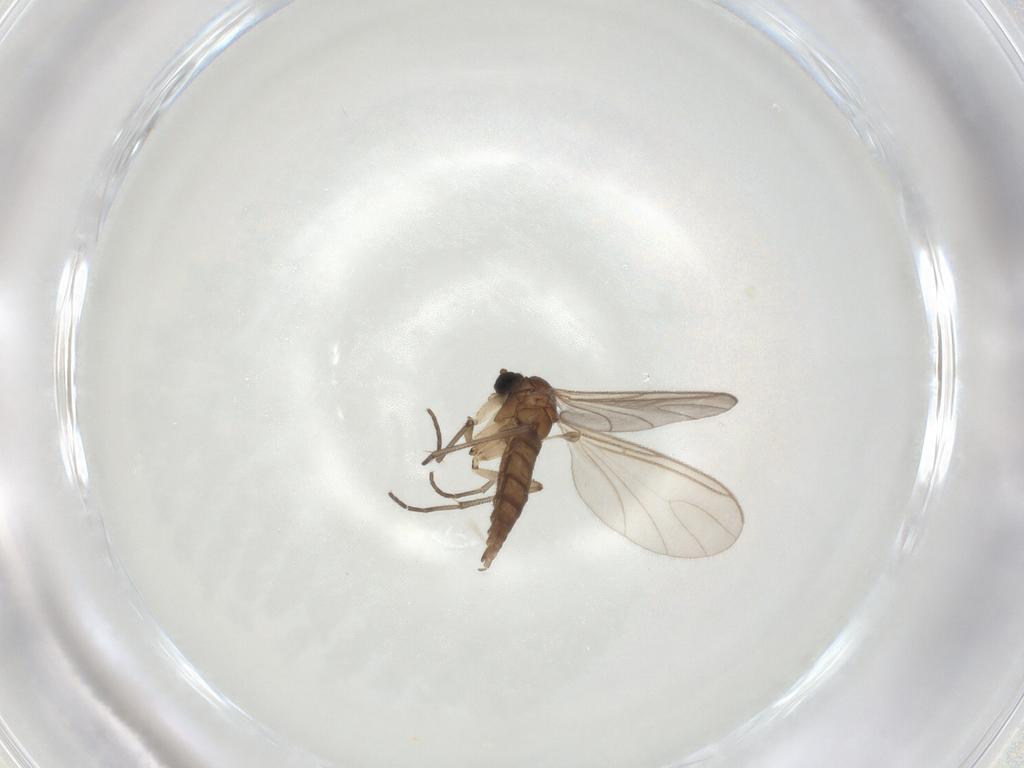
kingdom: Animalia
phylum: Arthropoda
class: Insecta
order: Diptera
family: Sciaridae
